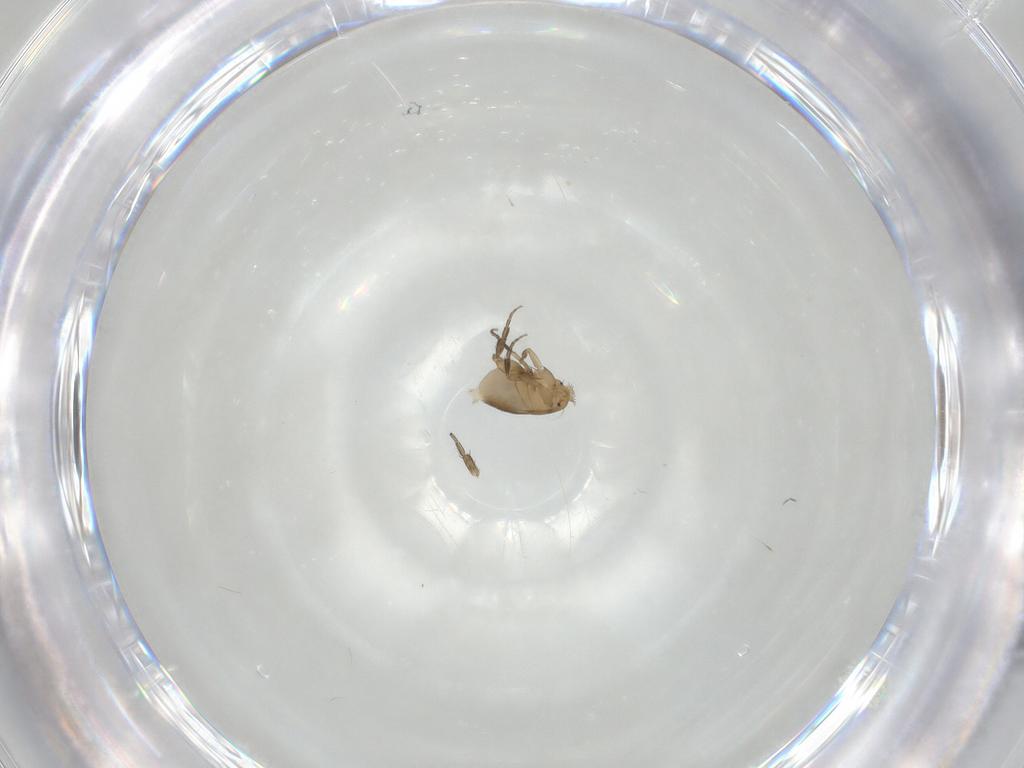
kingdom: Animalia
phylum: Arthropoda
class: Insecta
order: Diptera
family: Phoridae
